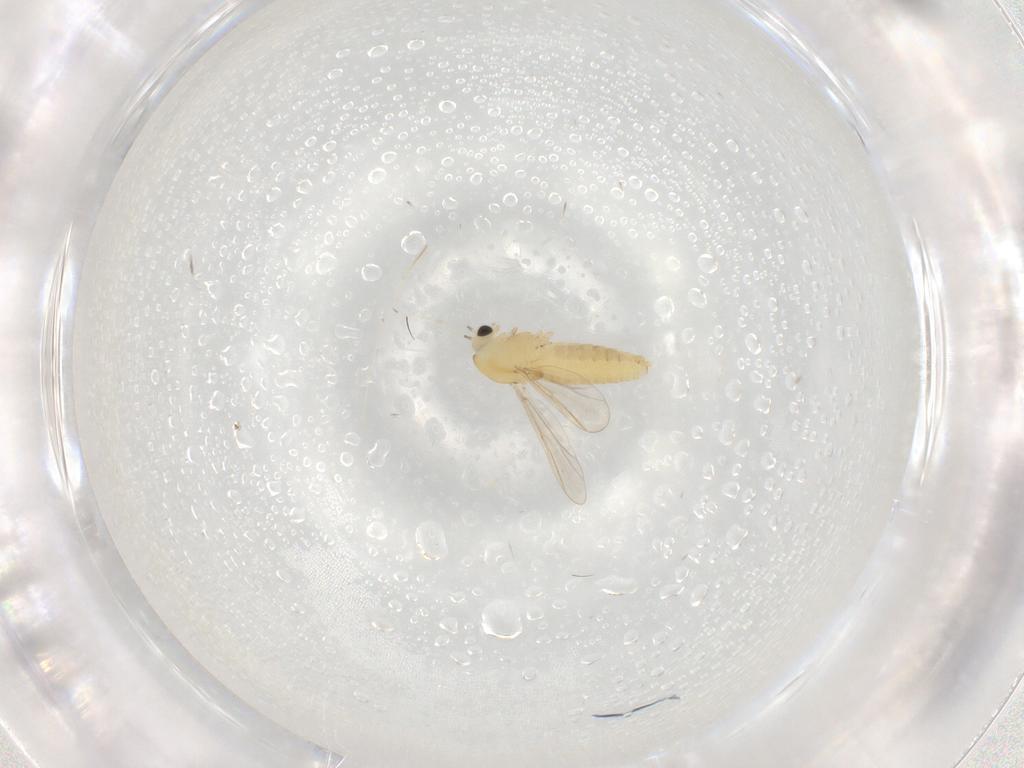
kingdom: Animalia
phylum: Arthropoda
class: Insecta
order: Diptera
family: Chironomidae
